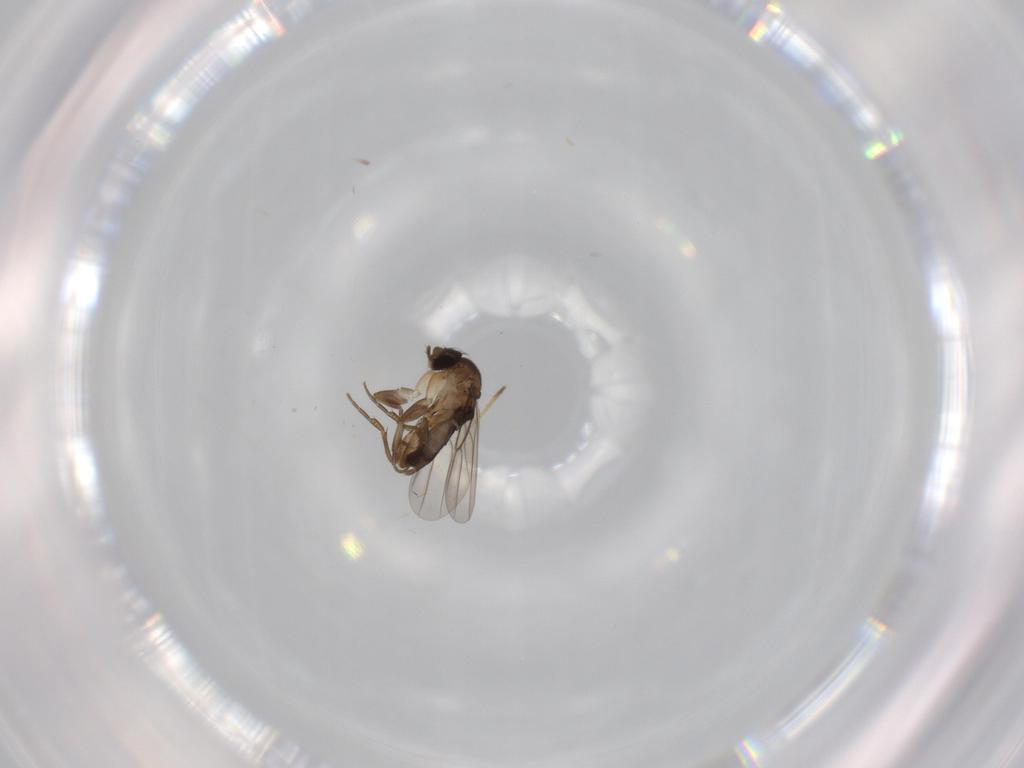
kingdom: Animalia
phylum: Arthropoda
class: Insecta
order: Diptera
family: Phoridae
